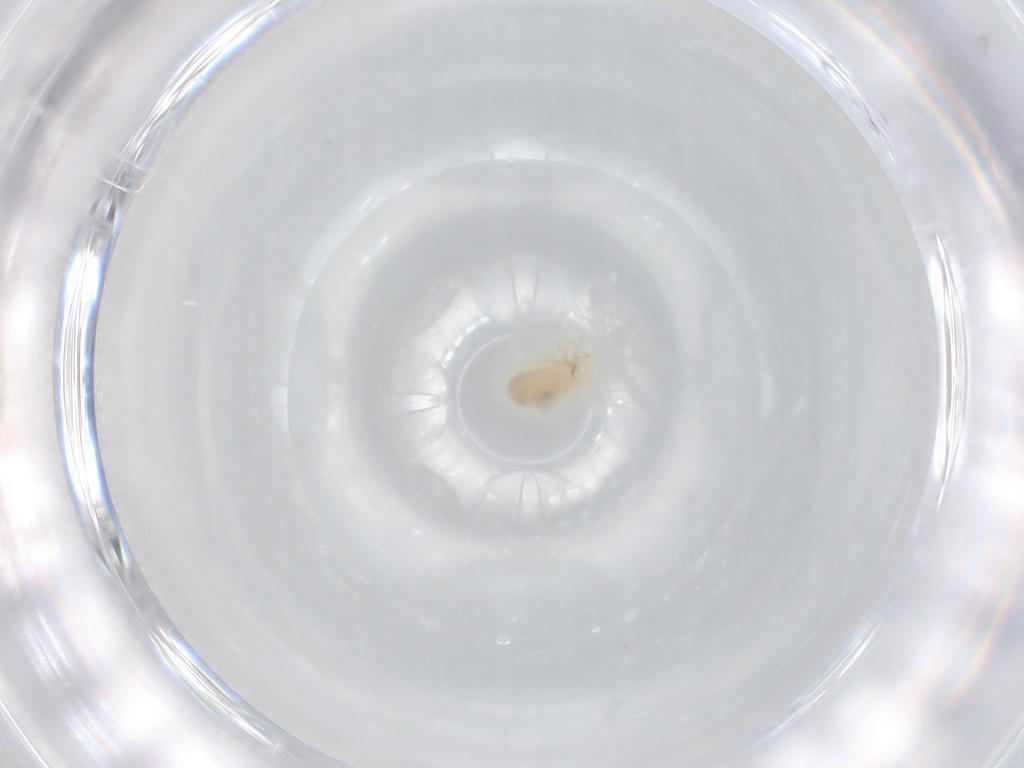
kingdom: Animalia
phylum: Arthropoda
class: Arachnida
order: Trombidiformes
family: Anystidae
